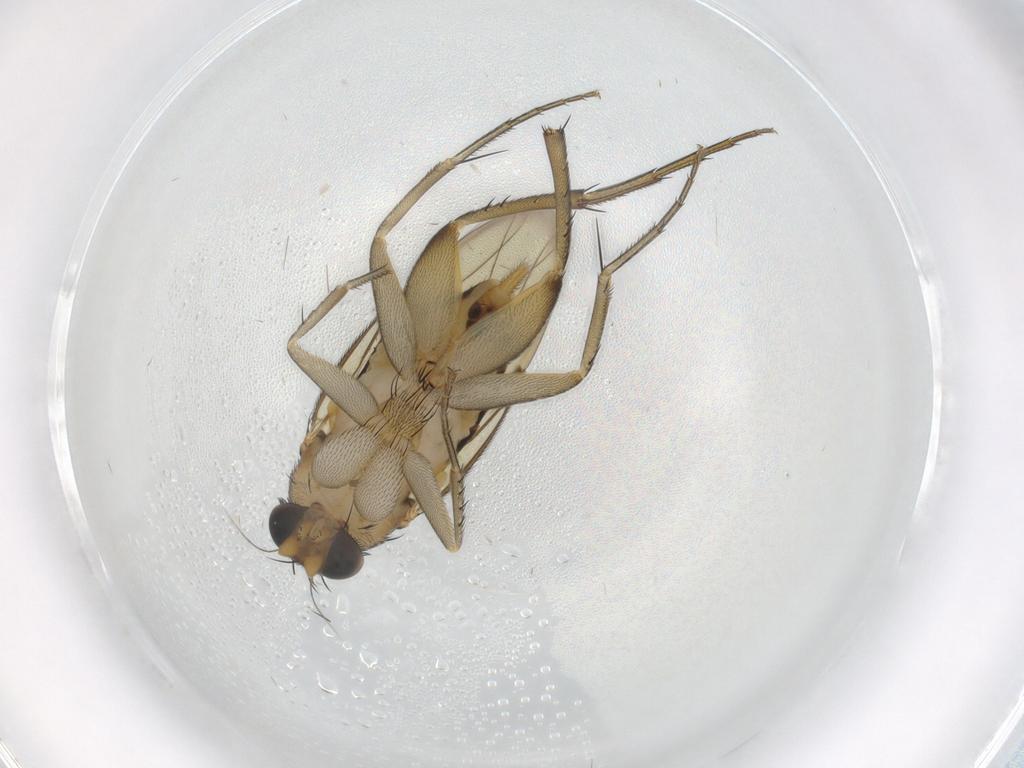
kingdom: Animalia
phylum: Arthropoda
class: Insecta
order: Diptera
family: Phoridae
